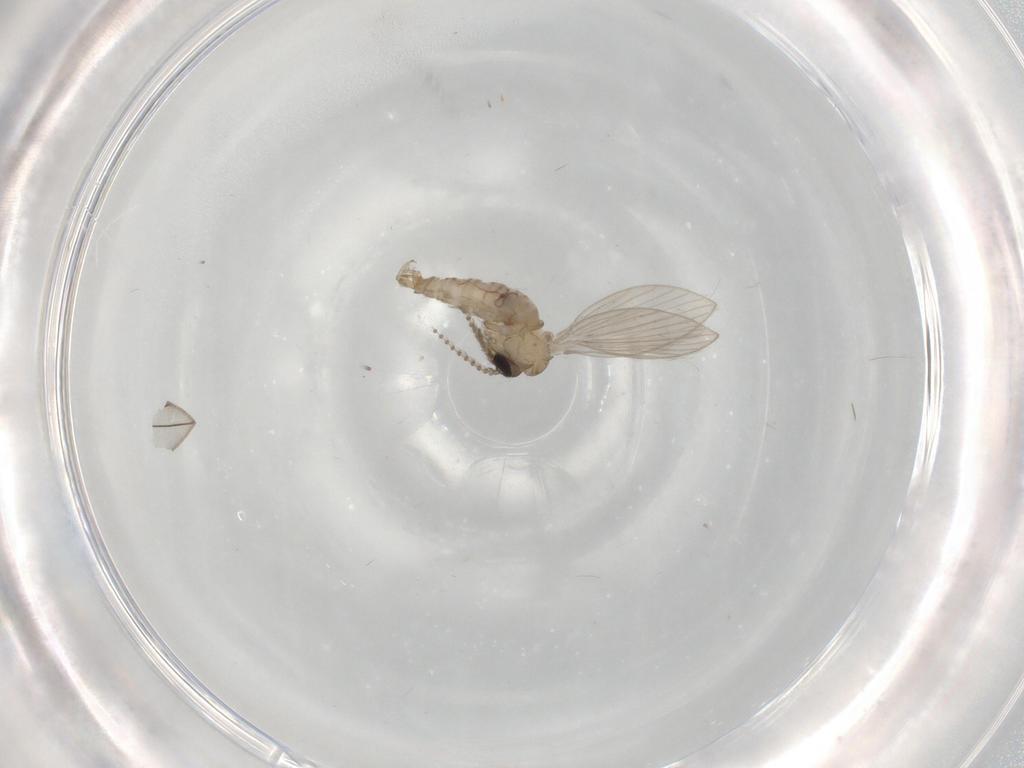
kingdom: Animalia
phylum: Arthropoda
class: Insecta
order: Diptera
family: Psychodidae
